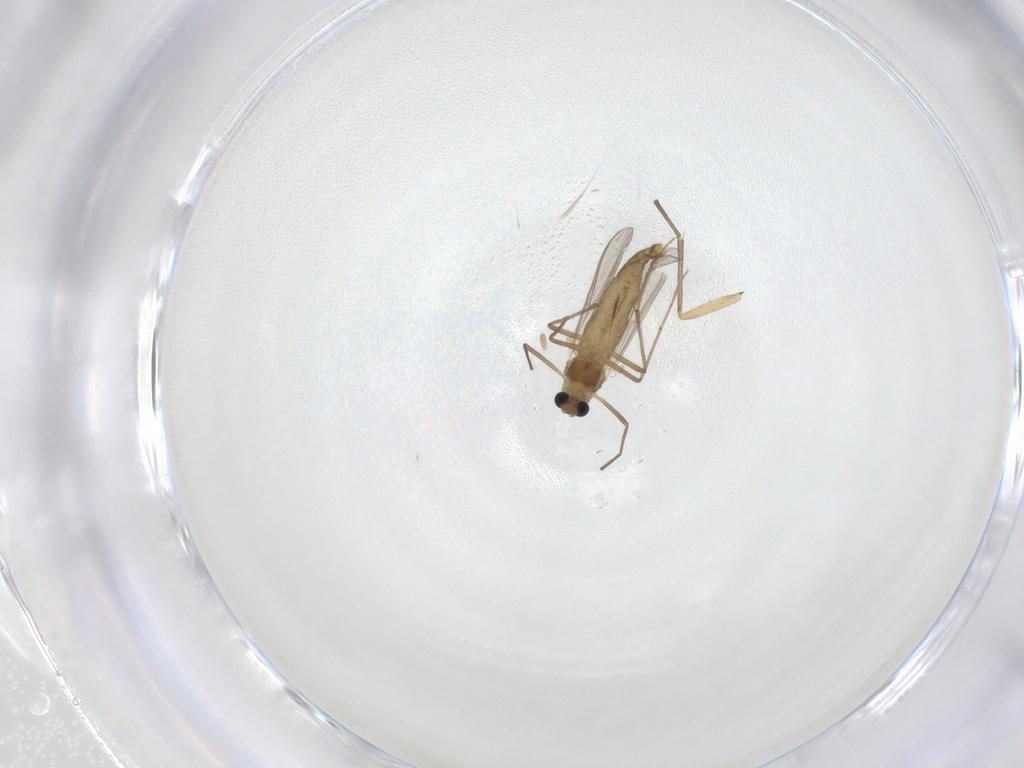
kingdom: Animalia
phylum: Arthropoda
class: Insecta
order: Diptera
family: Chironomidae
